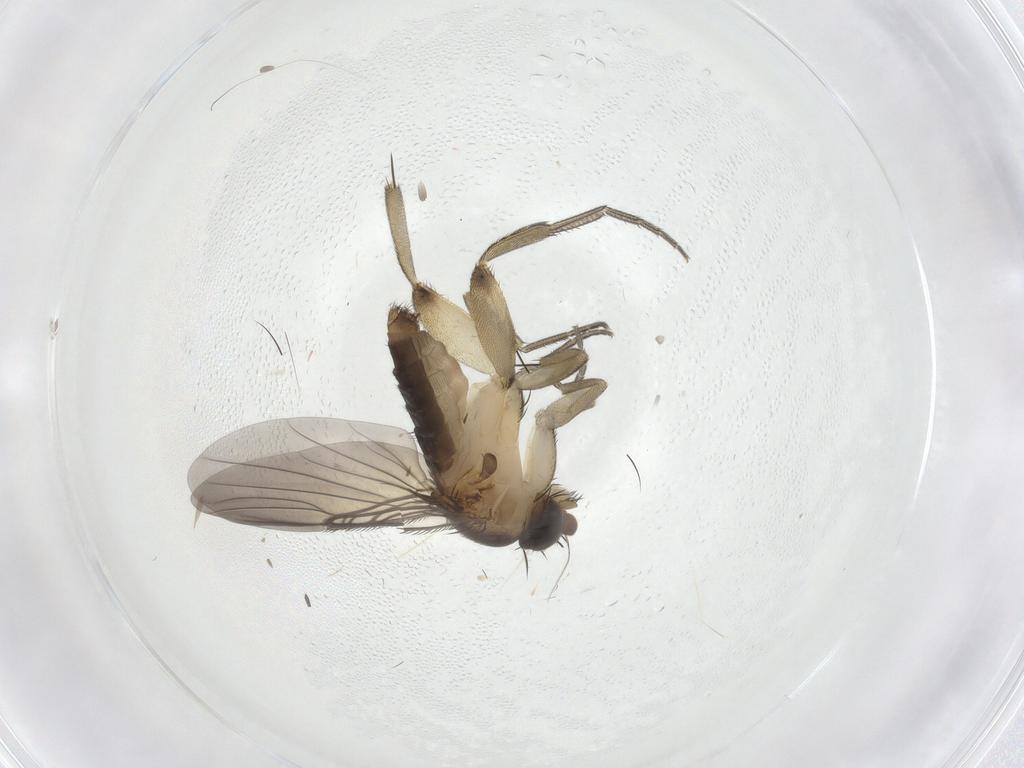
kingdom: Animalia
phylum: Arthropoda
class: Insecta
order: Diptera
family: Phoridae
